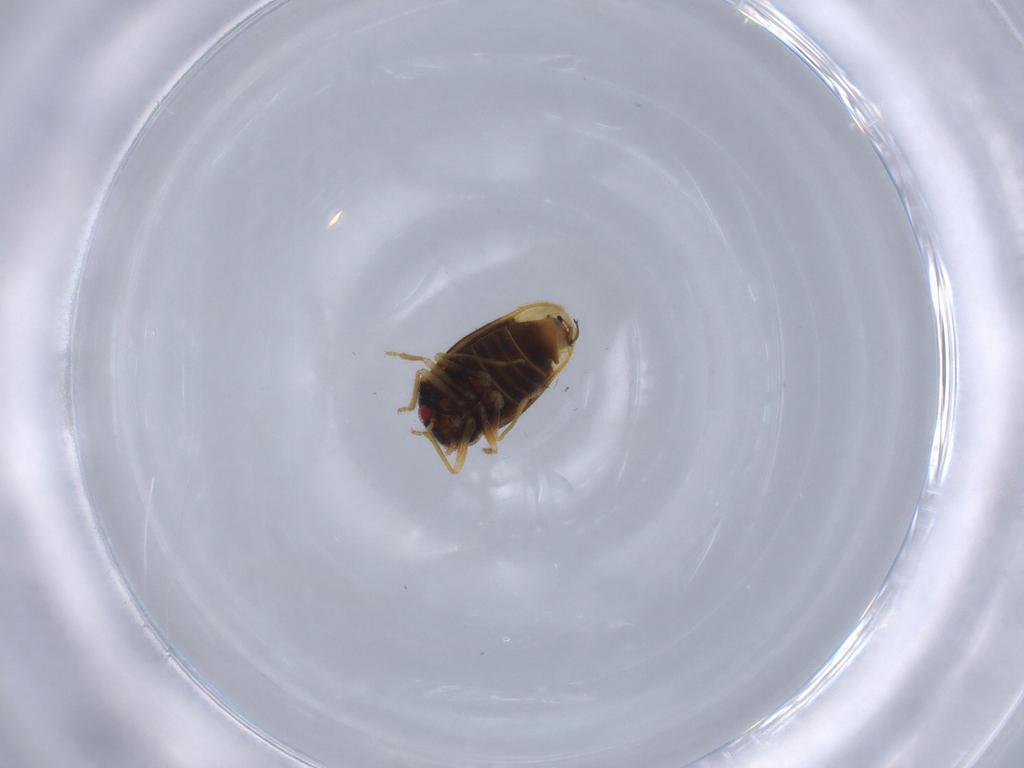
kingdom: Animalia
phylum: Arthropoda
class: Insecta
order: Hemiptera
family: Schizopteridae
